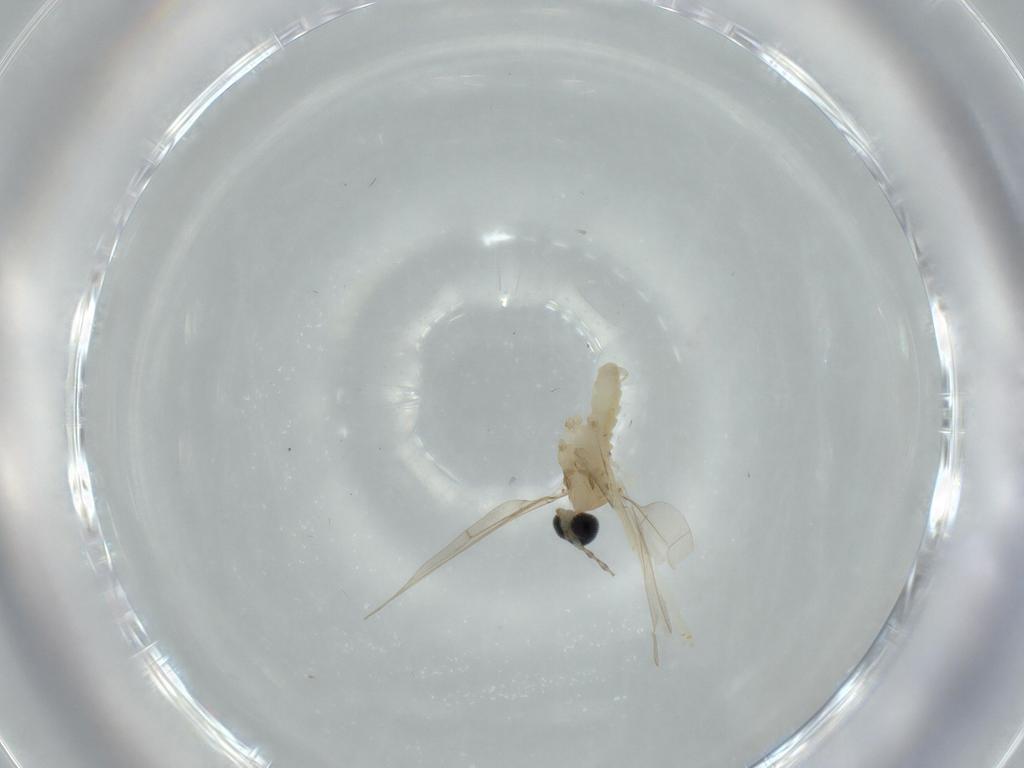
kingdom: Animalia
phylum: Arthropoda
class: Insecta
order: Diptera
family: Cecidomyiidae
